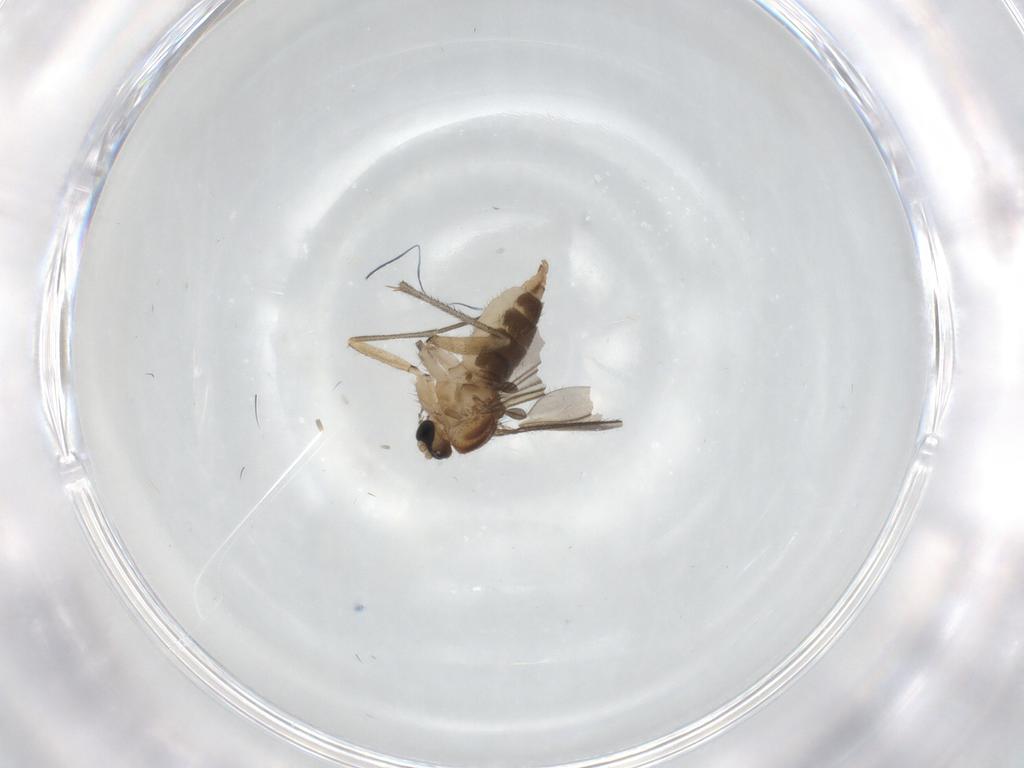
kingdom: Animalia
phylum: Arthropoda
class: Insecta
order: Diptera
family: Sciaridae
